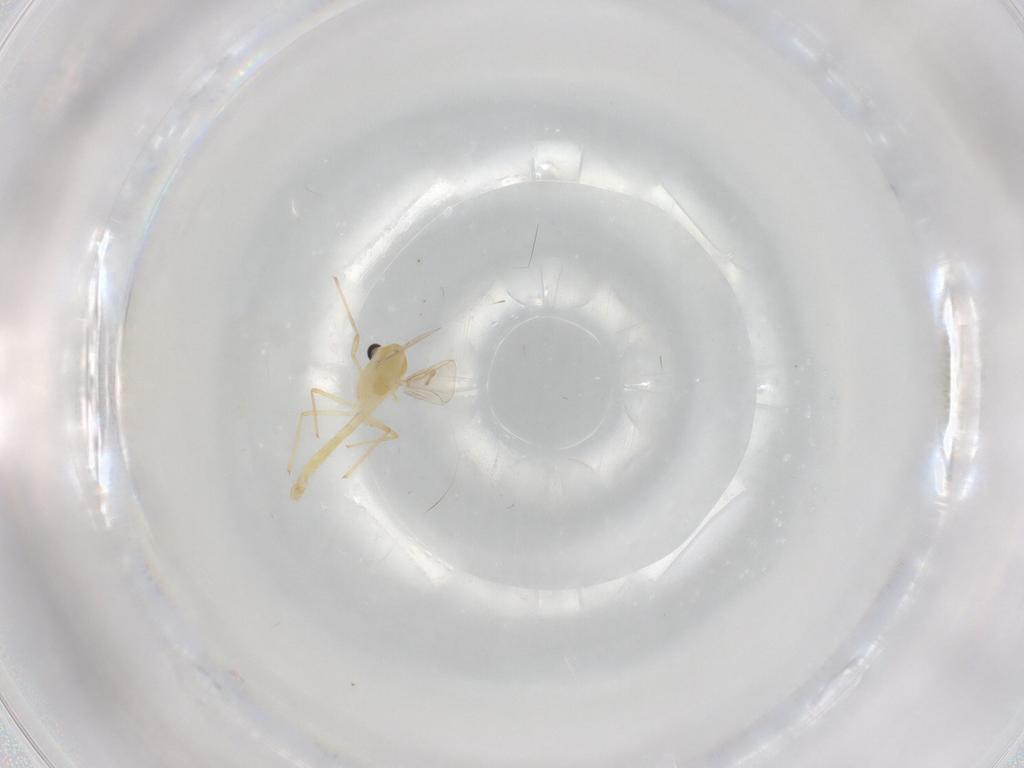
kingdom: Animalia
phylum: Arthropoda
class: Insecta
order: Diptera
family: Chironomidae
